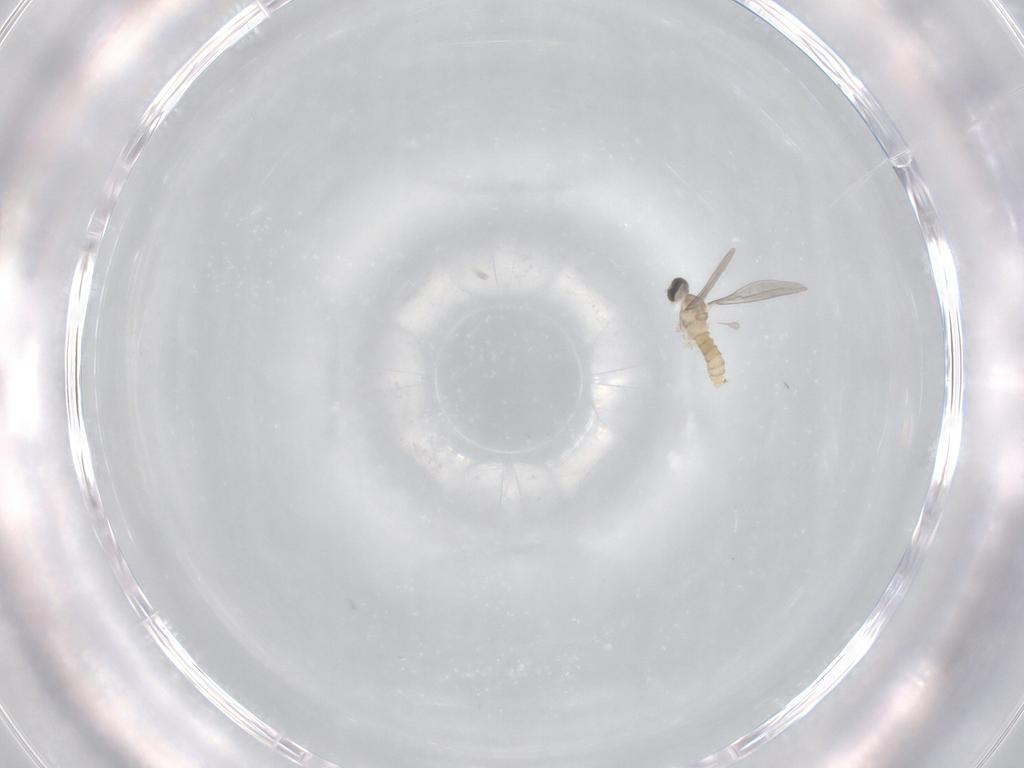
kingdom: Animalia
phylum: Arthropoda
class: Insecta
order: Diptera
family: Cecidomyiidae
